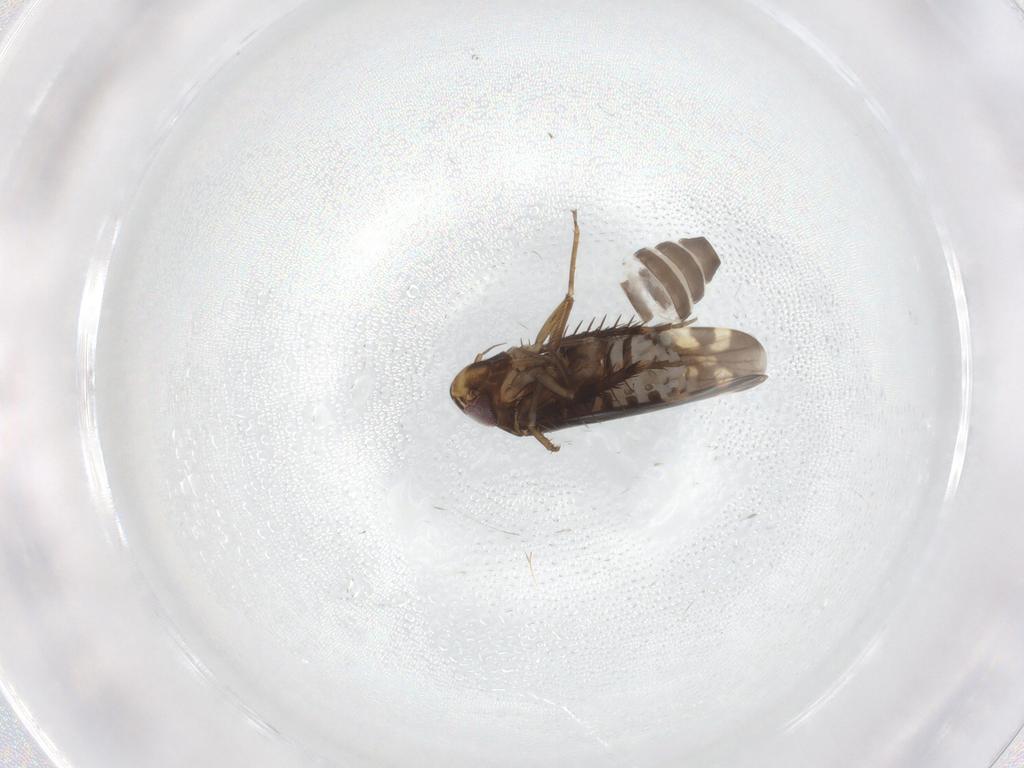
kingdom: Animalia
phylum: Arthropoda
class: Insecta
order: Hemiptera
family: Cicadellidae
